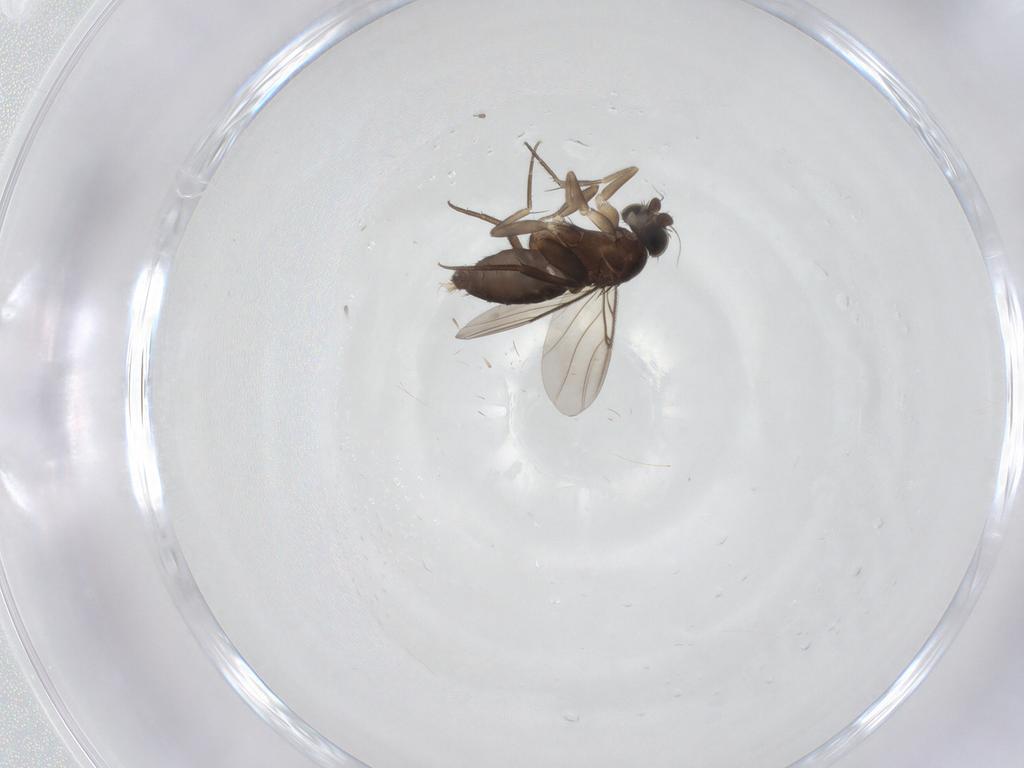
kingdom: Animalia
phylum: Arthropoda
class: Insecta
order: Diptera
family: Phoridae
